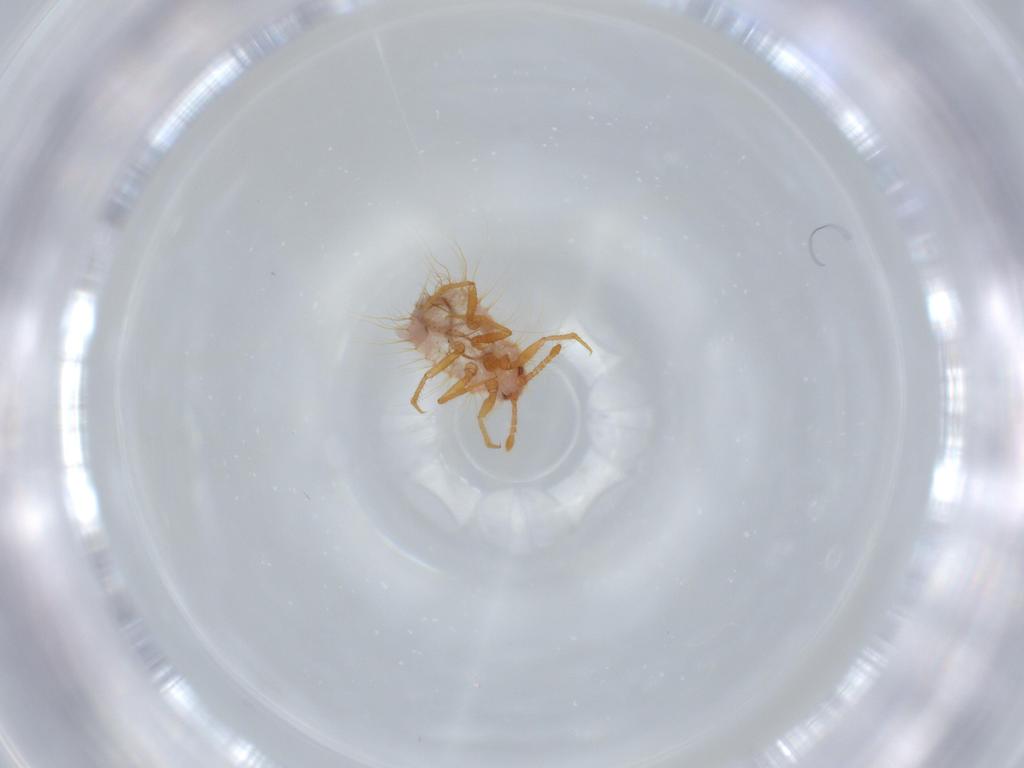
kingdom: Animalia
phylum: Arthropoda
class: Insecta
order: Hemiptera
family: Coccoidea_incertae_sedis
